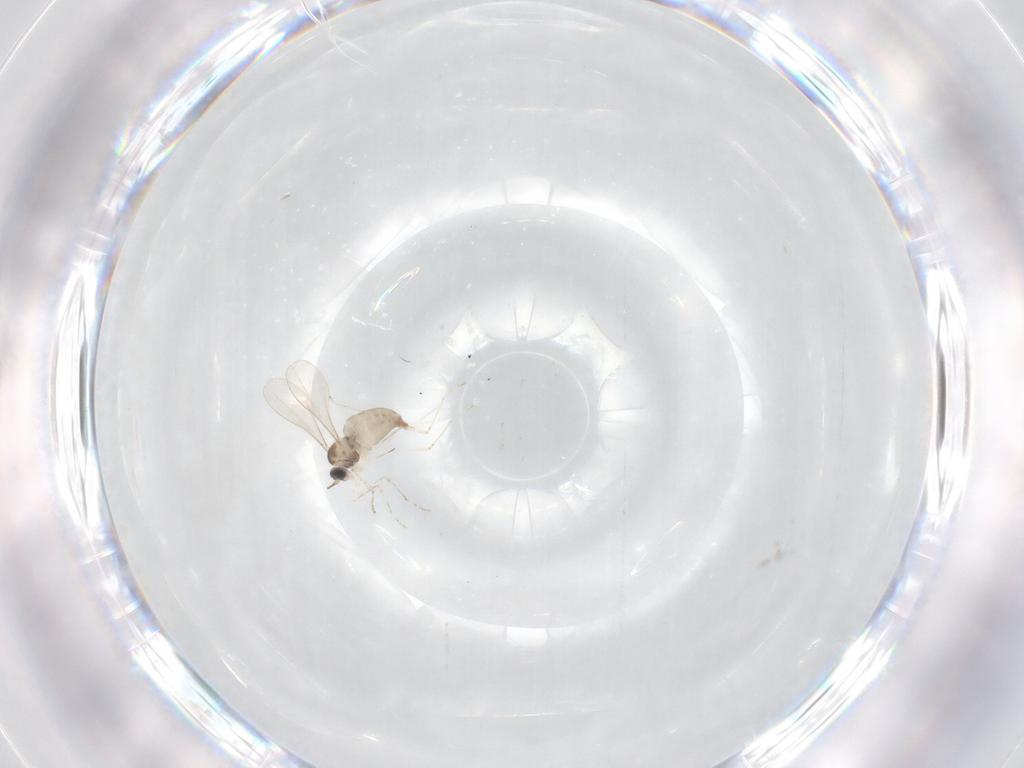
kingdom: Animalia
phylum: Arthropoda
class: Insecta
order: Diptera
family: Cecidomyiidae
